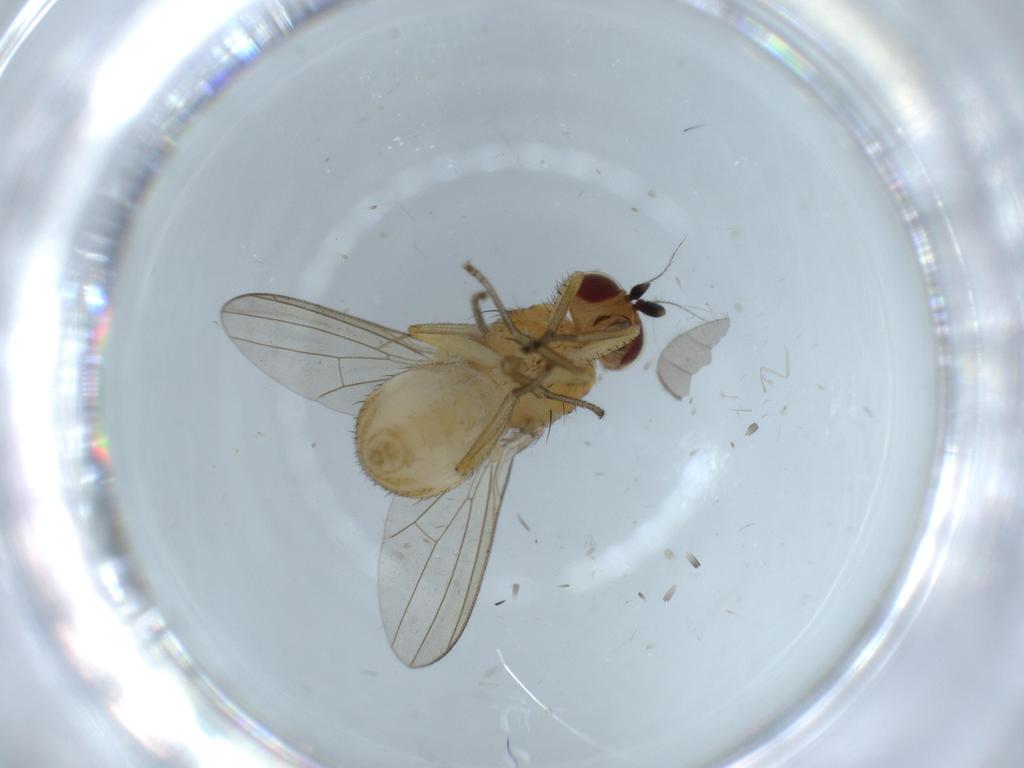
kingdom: Animalia
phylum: Arthropoda
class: Insecta
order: Diptera
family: Lauxaniidae
